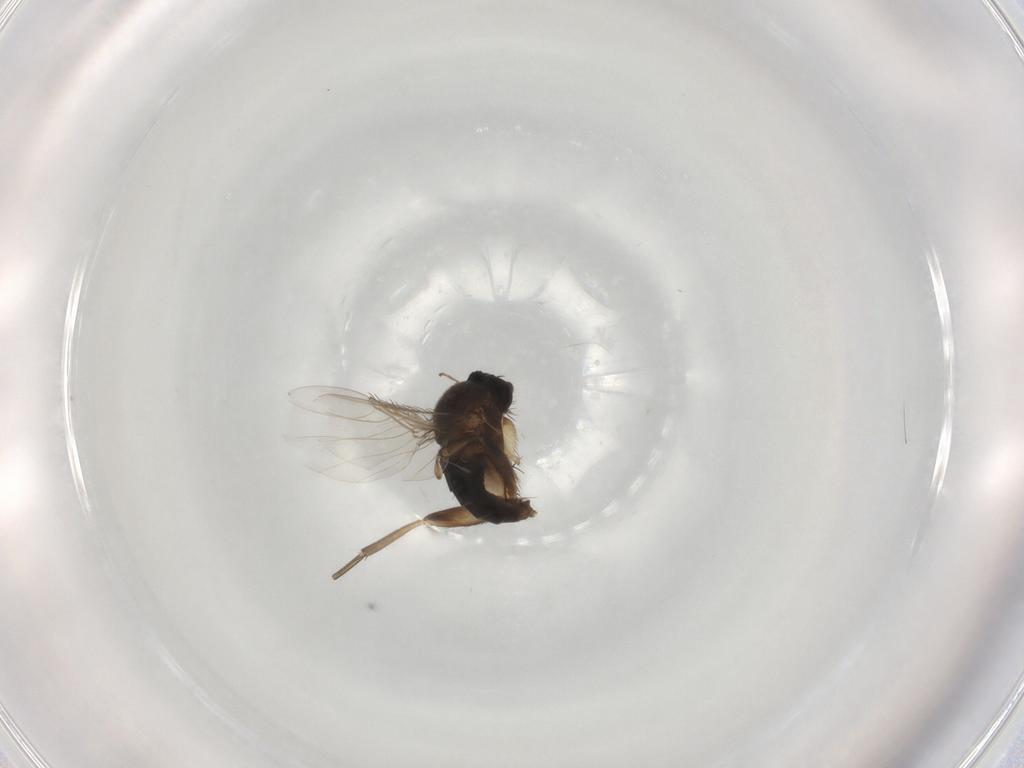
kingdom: Animalia
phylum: Arthropoda
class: Insecta
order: Diptera
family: Phoridae
